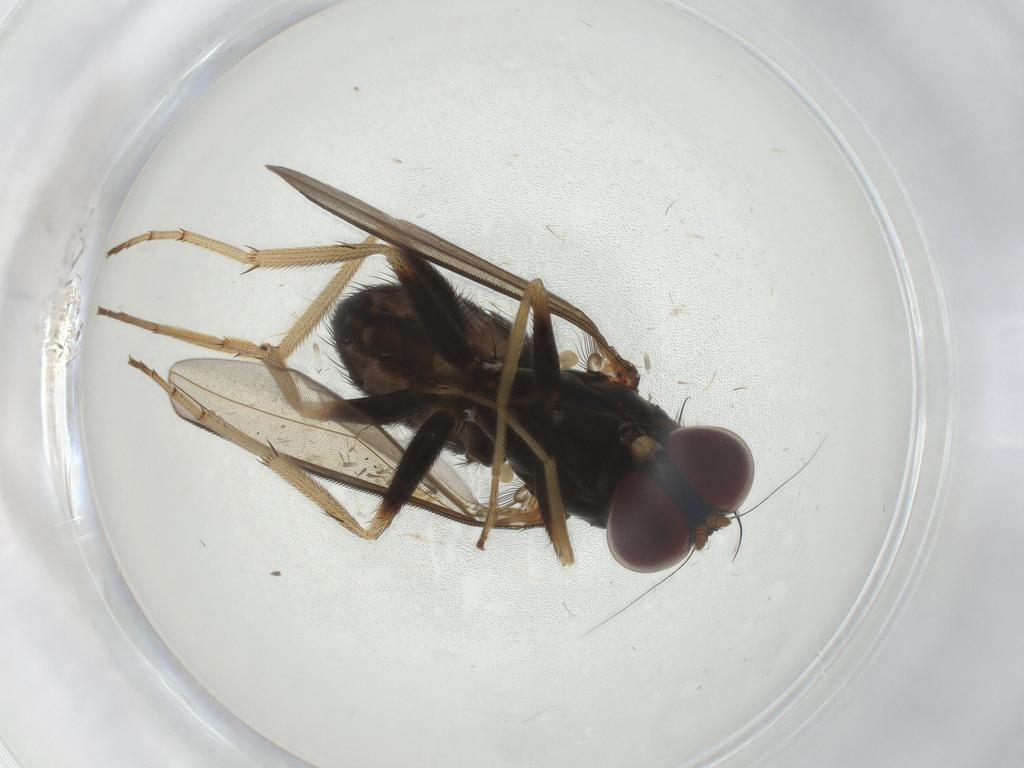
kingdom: Animalia
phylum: Arthropoda
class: Insecta
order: Diptera
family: Dolichopodidae
